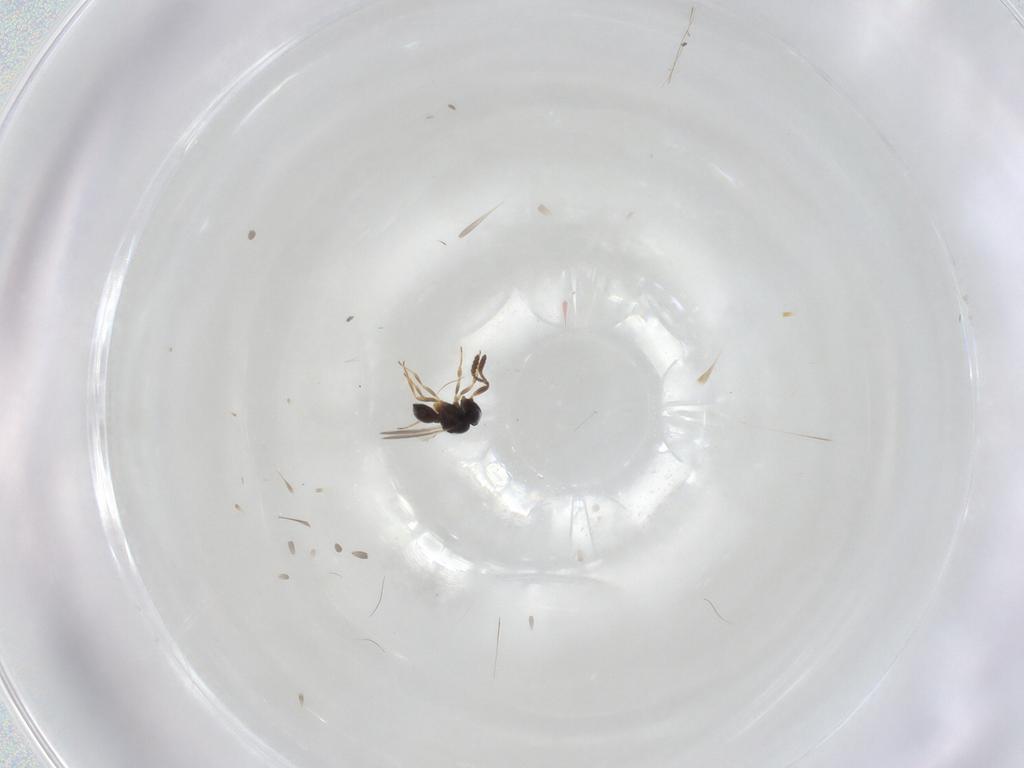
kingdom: Animalia
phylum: Arthropoda
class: Insecta
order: Hymenoptera
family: Scelionidae
